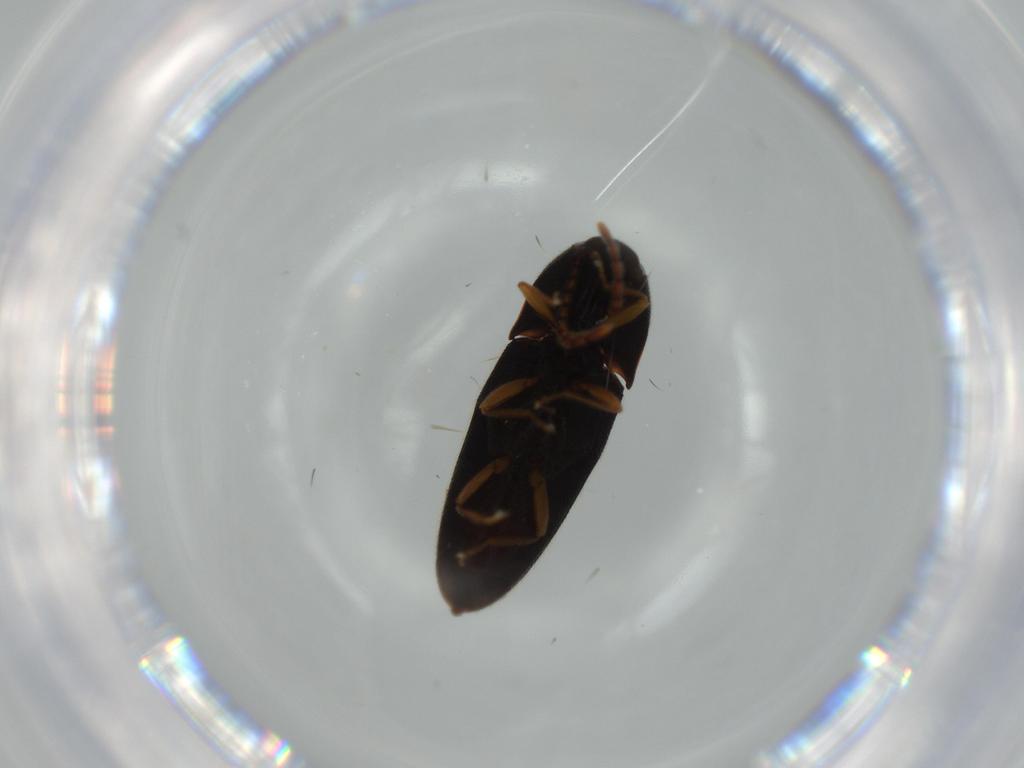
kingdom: Animalia
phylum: Arthropoda
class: Insecta
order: Coleoptera
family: Elateridae
